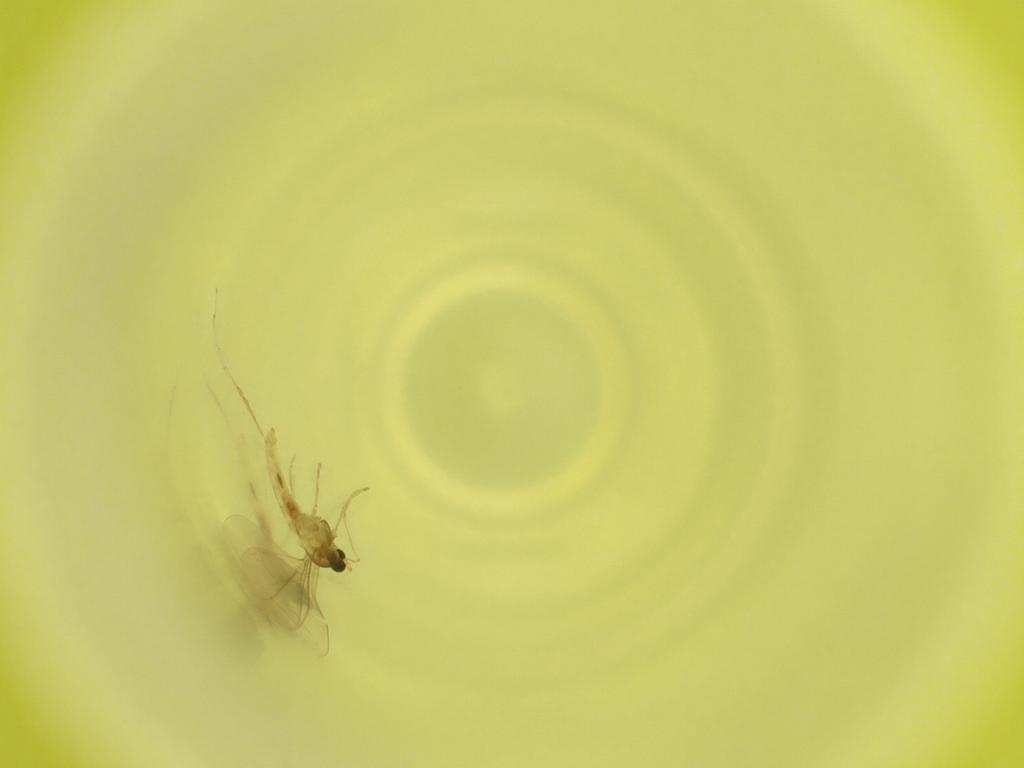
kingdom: Animalia
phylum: Arthropoda
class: Insecta
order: Diptera
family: Cecidomyiidae
